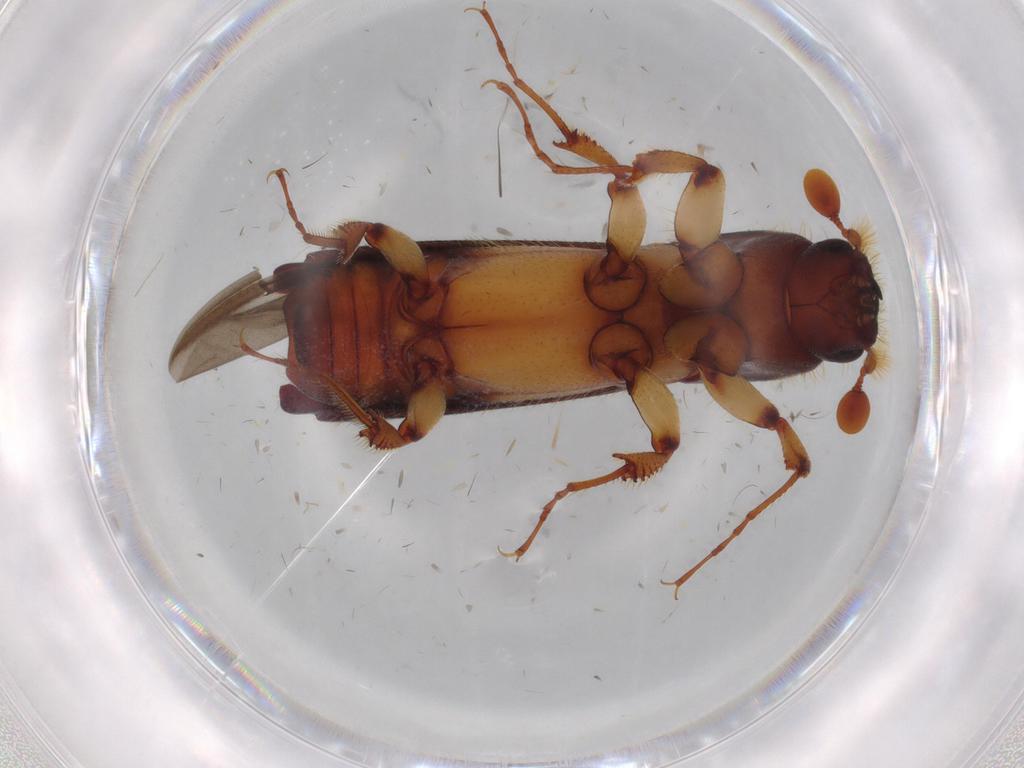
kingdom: Animalia
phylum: Arthropoda
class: Insecta
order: Coleoptera
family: Curculionidae
